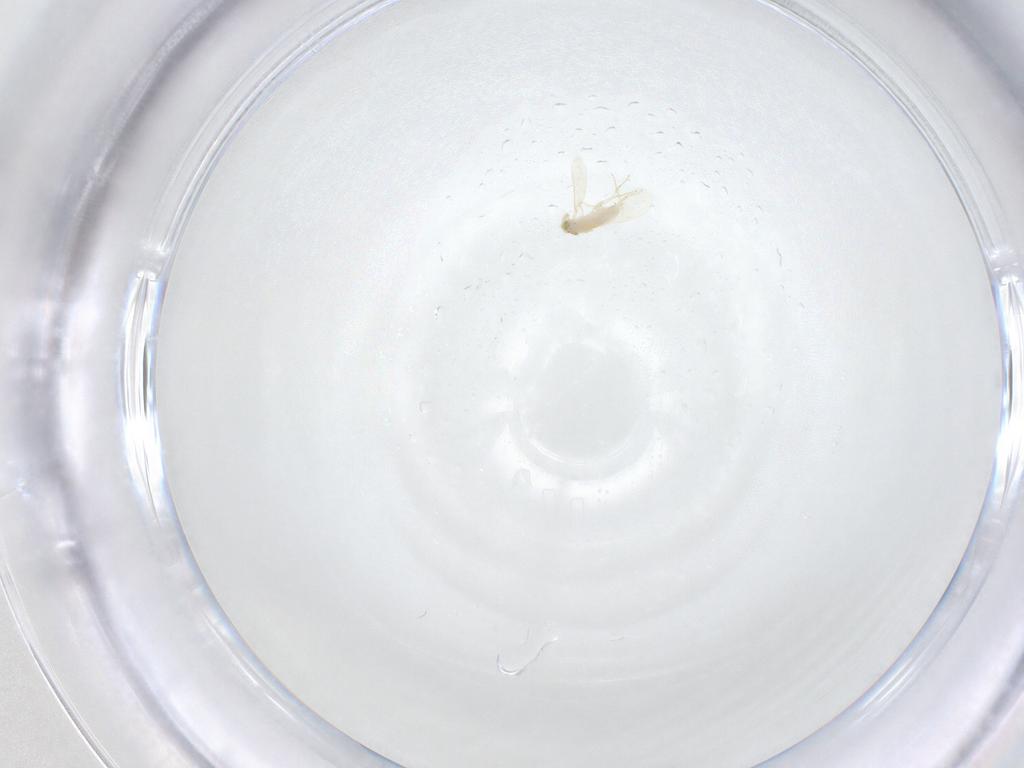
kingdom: Animalia
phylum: Arthropoda
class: Insecta
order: Hymenoptera
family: Aphelinidae
